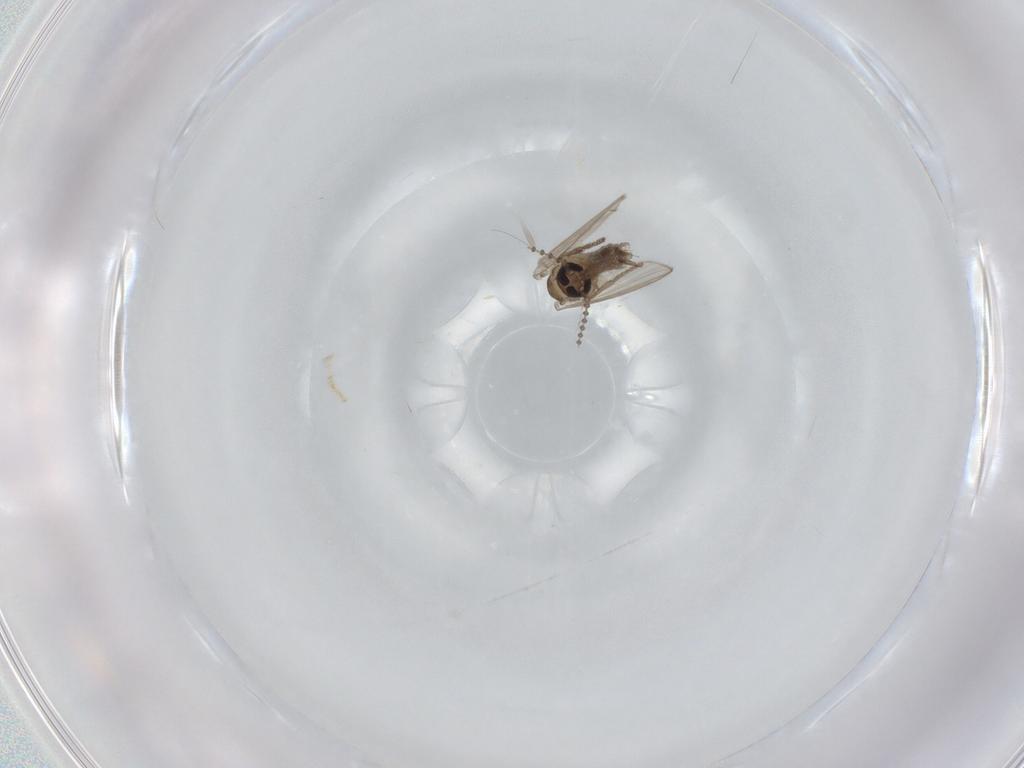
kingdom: Animalia
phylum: Arthropoda
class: Insecta
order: Diptera
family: Psychodidae
